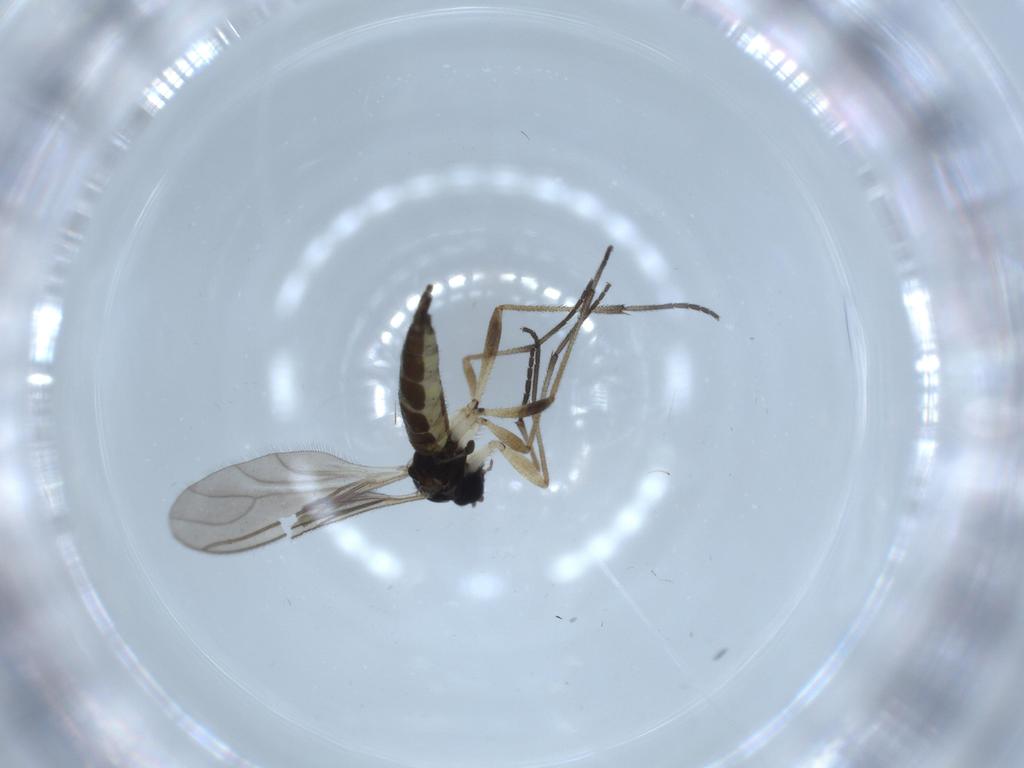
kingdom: Animalia
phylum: Arthropoda
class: Insecta
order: Diptera
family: Sciaridae
